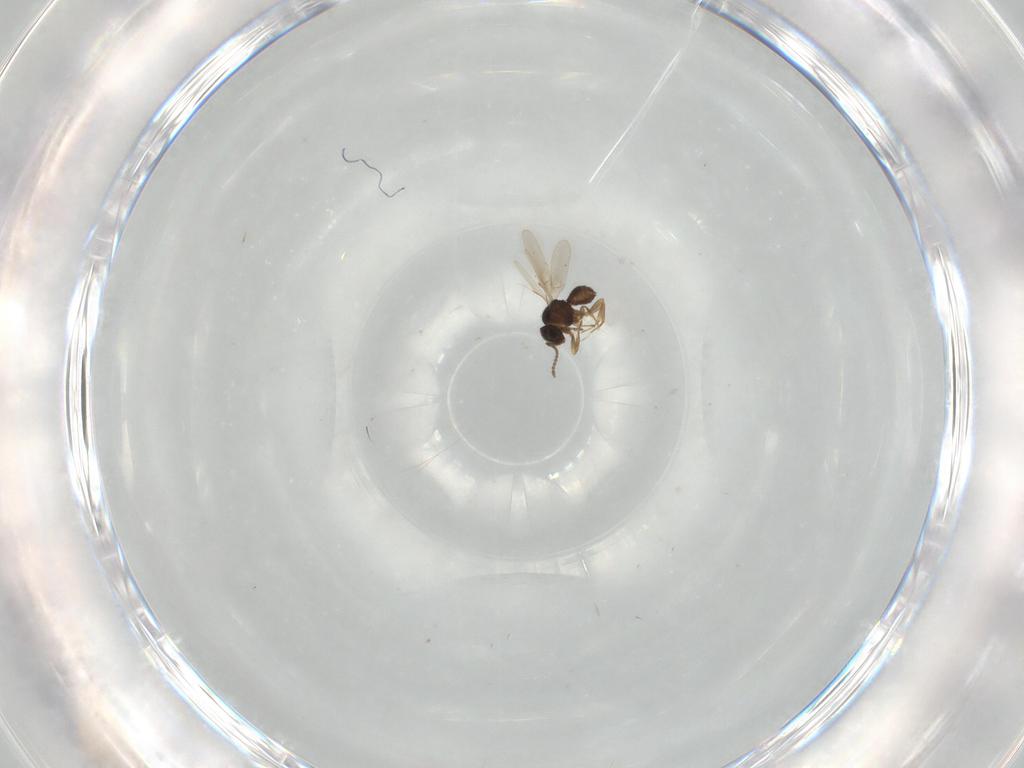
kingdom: Animalia
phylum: Arthropoda
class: Insecta
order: Hymenoptera
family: Scelionidae
